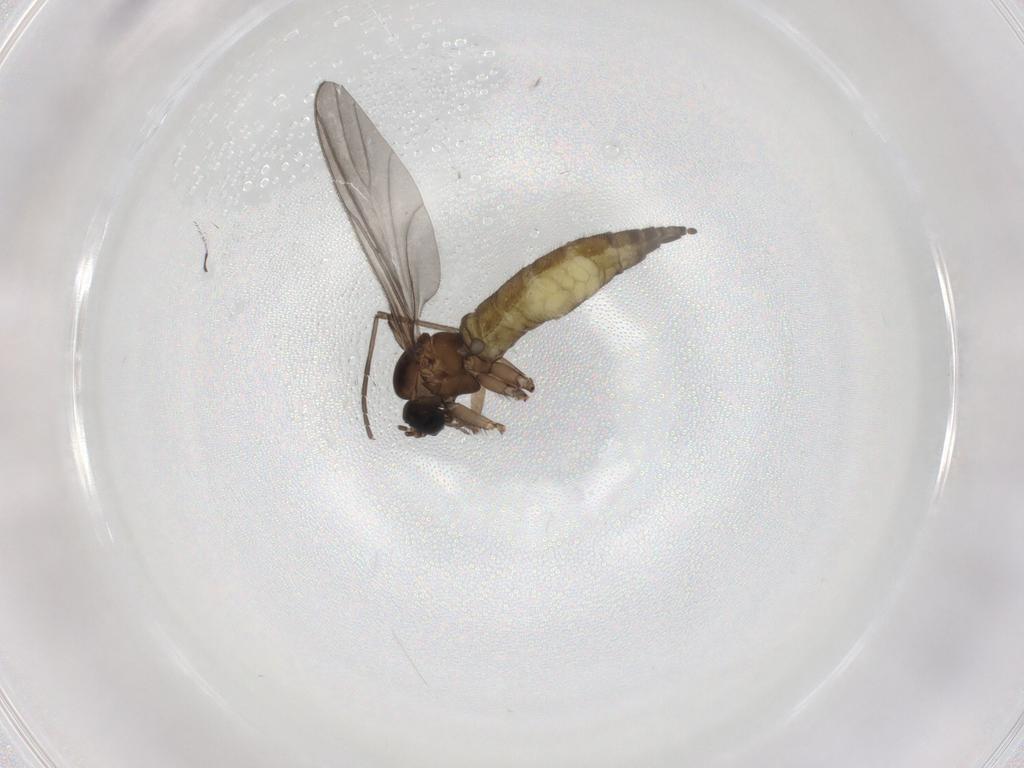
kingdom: Animalia
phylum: Arthropoda
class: Insecta
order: Diptera
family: Sciaridae
